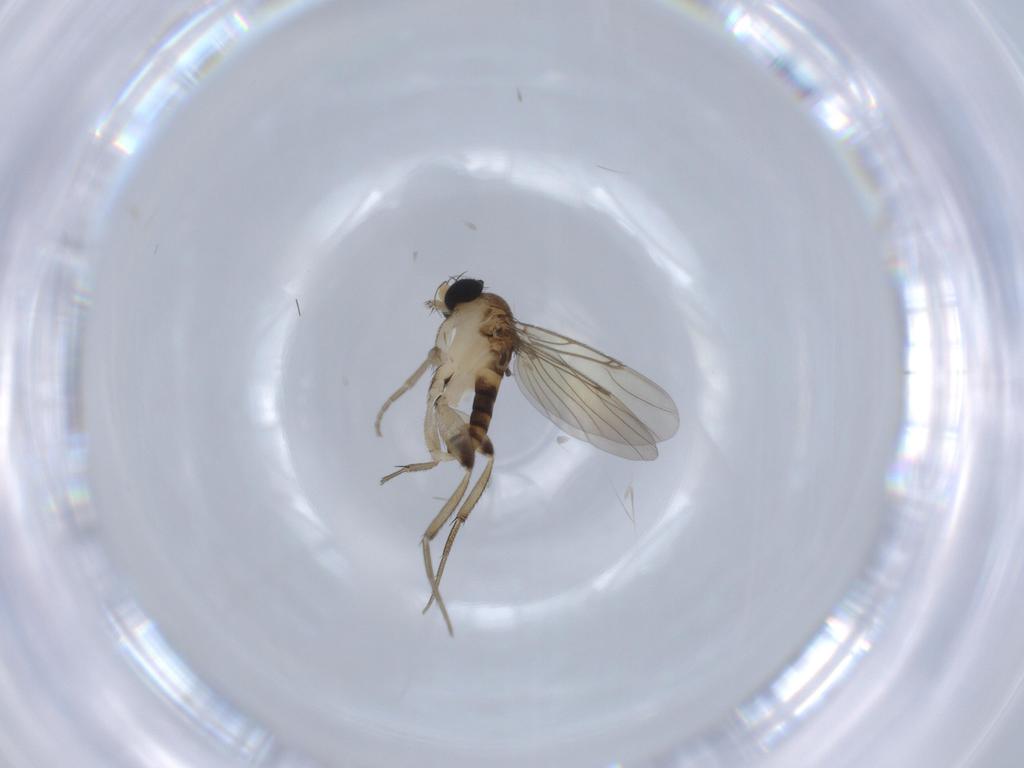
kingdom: Animalia
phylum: Arthropoda
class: Insecta
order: Diptera
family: Phoridae
